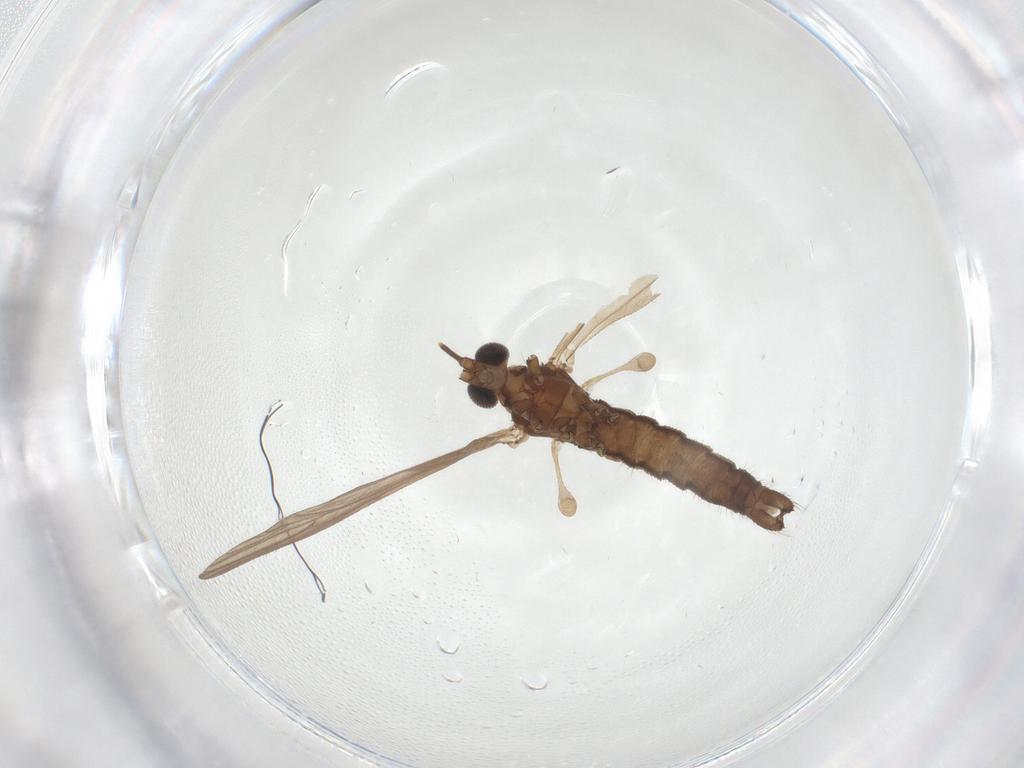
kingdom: Animalia
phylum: Arthropoda
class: Insecta
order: Diptera
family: Limoniidae
